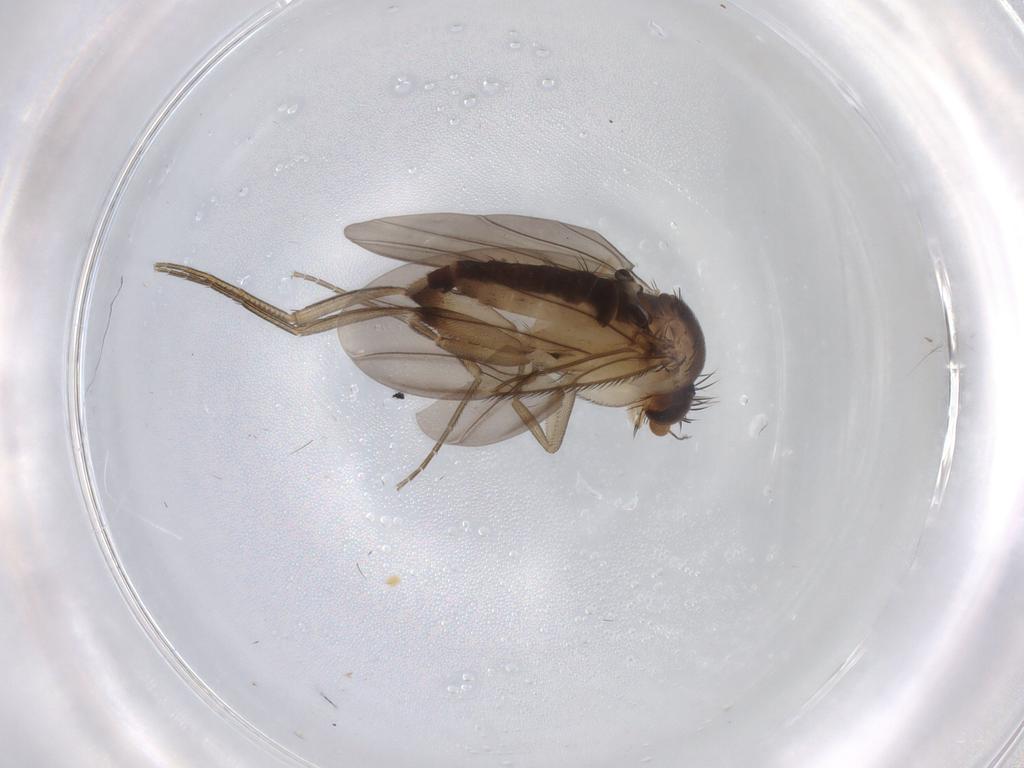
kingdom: Animalia
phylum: Arthropoda
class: Insecta
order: Diptera
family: Phoridae
